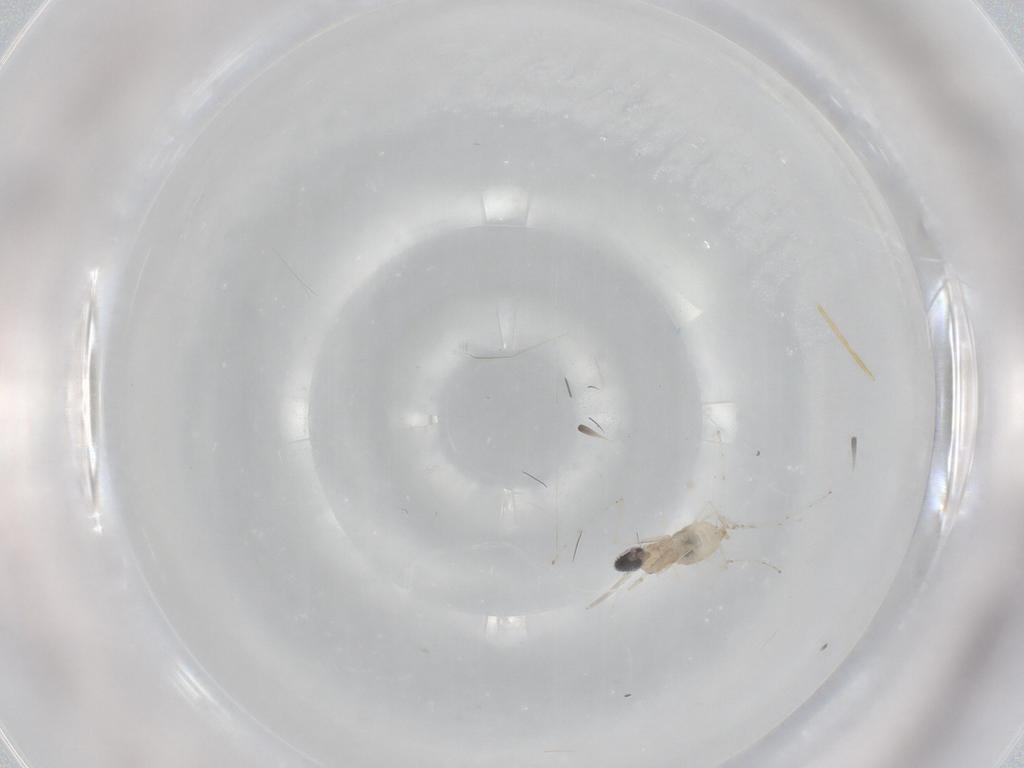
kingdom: Animalia
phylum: Arthropoda
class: Insecta
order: Diptera
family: Cecidomyiidae
